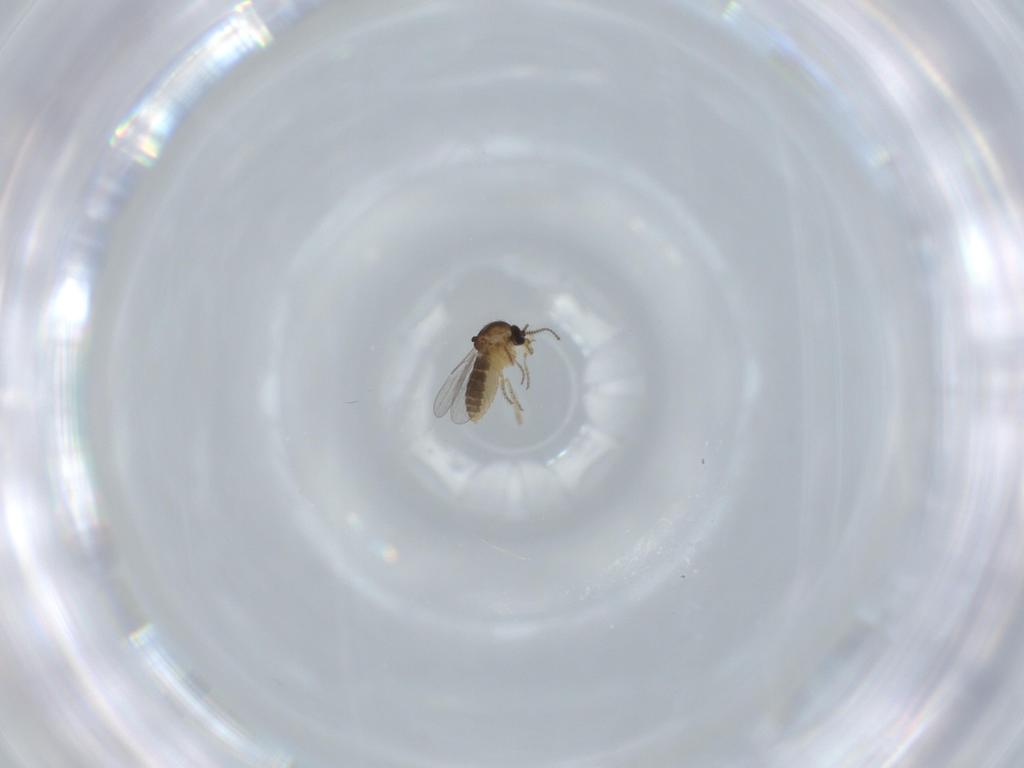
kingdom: Animalia
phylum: Arthropoda
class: Insecta
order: Diptera
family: Ceratopogonidae
